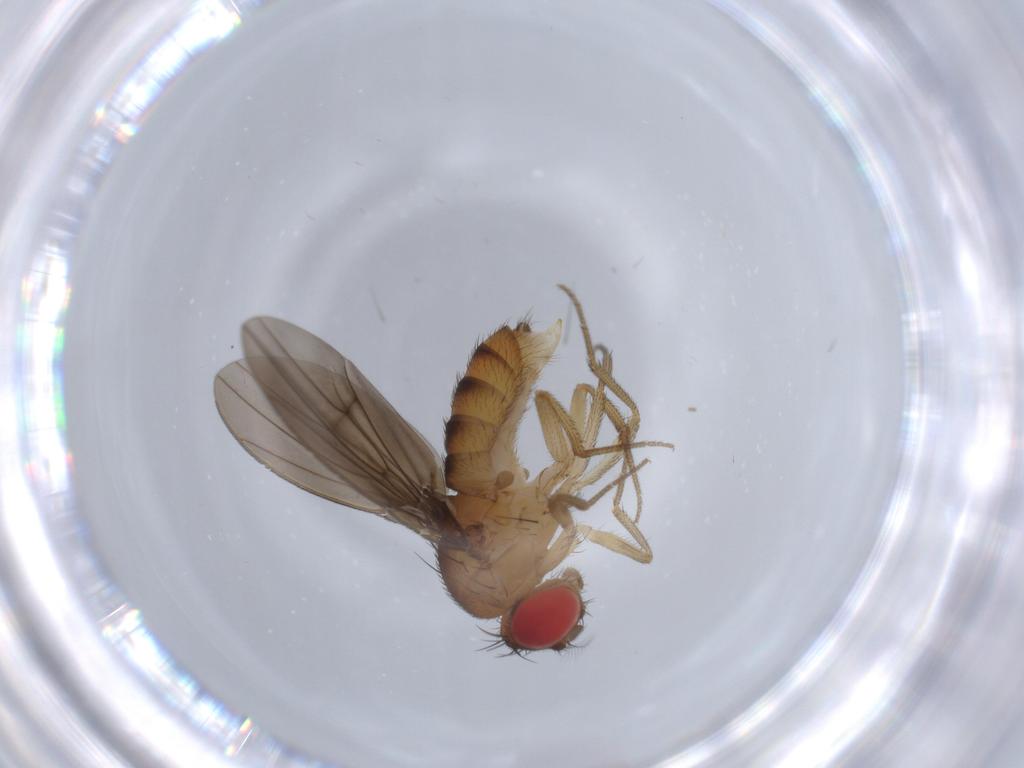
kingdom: Animalia
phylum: Arthropoda
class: Insecta
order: Diptera
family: Drosophilidae
